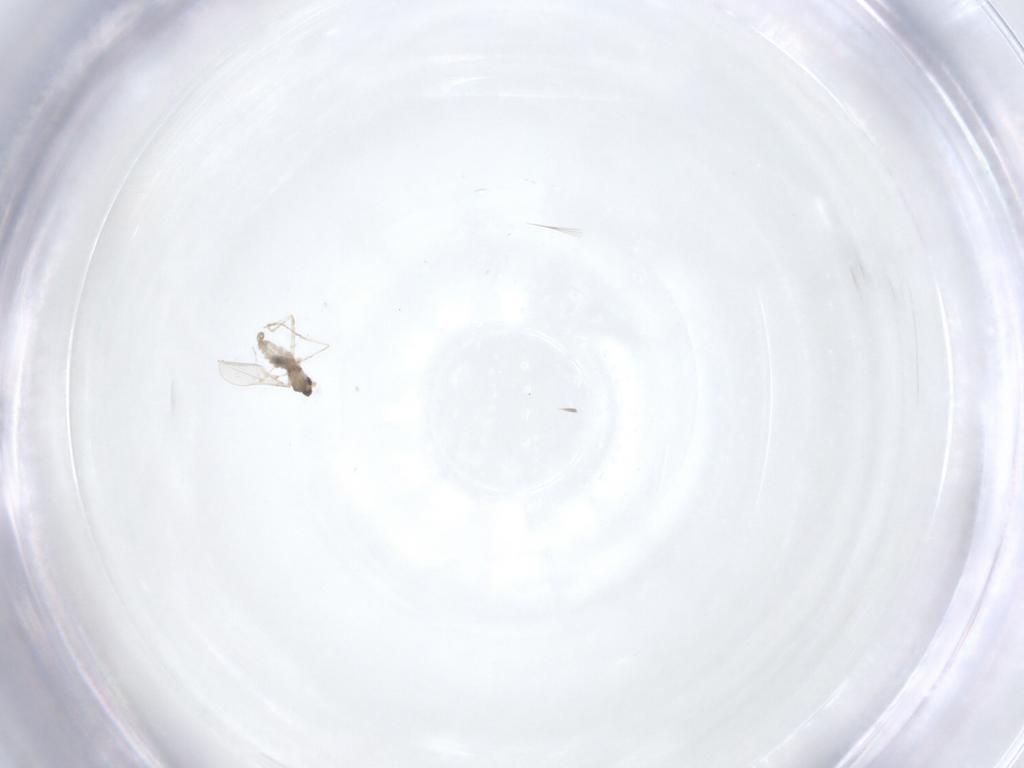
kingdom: Animalia
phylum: Arthropoda
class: Insecta
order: Diptera
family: Cecidomyiidae
